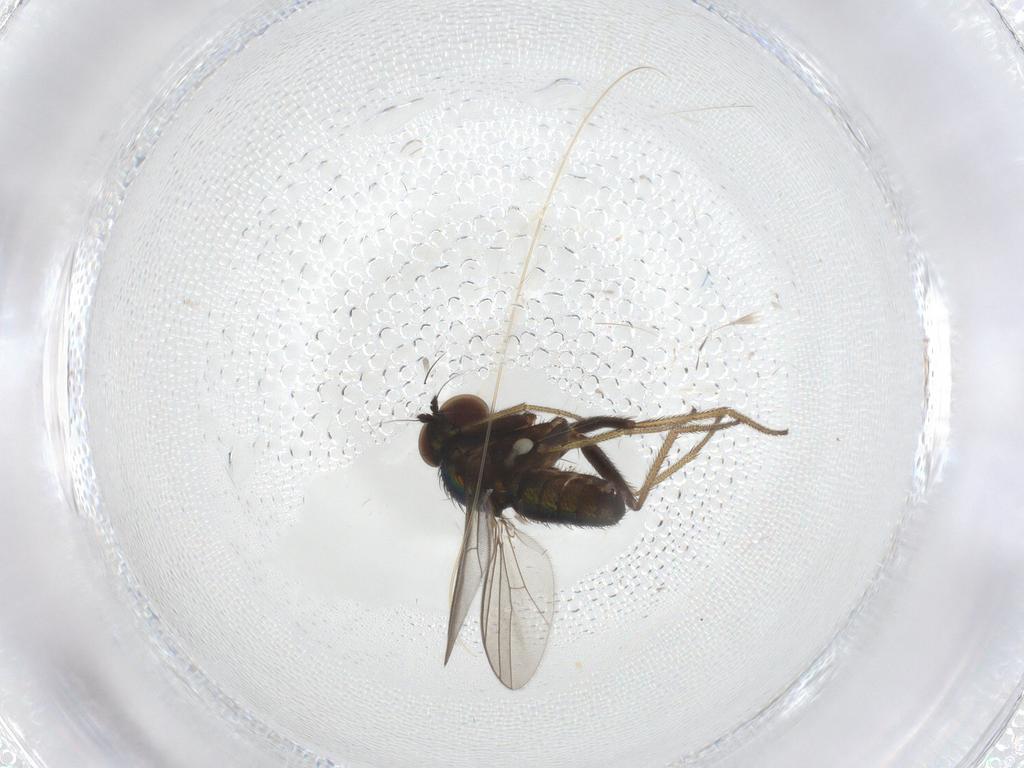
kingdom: Animalia
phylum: Arthropoda
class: Insecta
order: Diptera
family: Dolichopodidae
